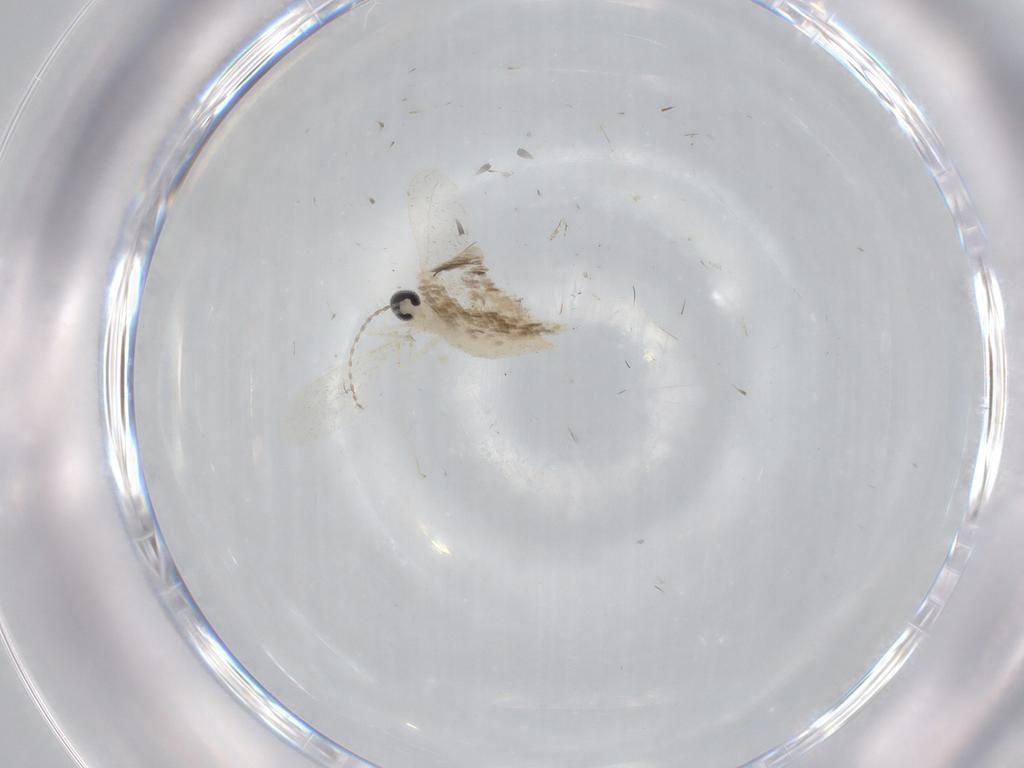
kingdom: Animalia
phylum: Arthropoda
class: Insecta
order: Diptera
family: Cecidomyiidae
